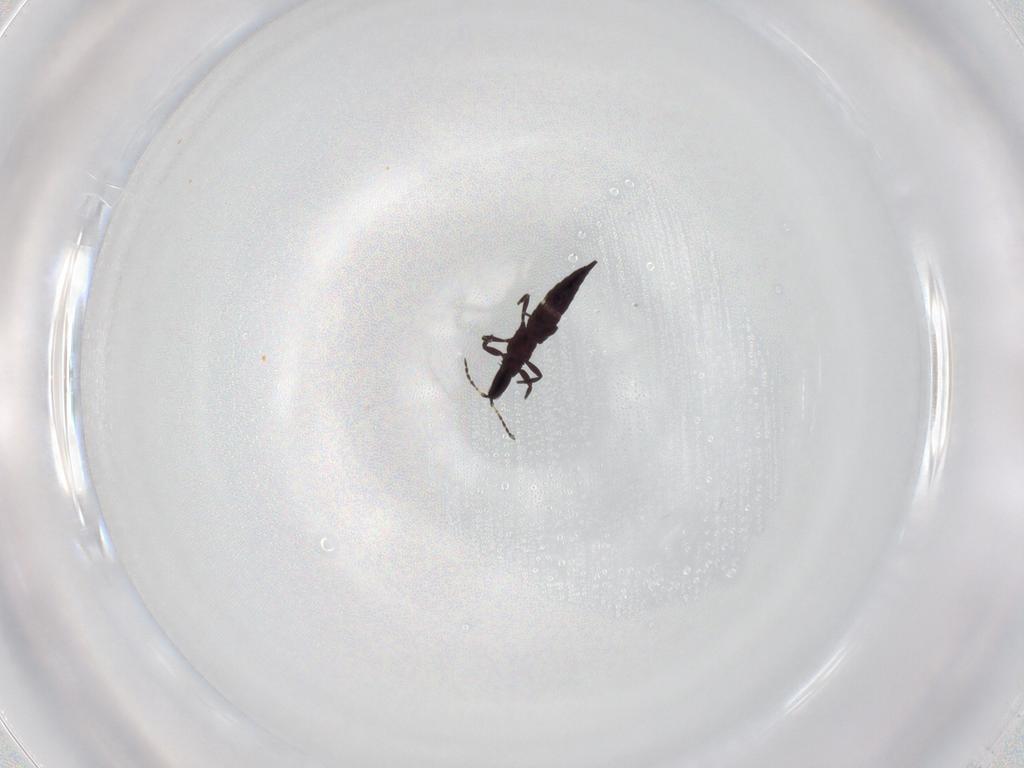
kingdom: Animalia
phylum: Arthropoda
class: Insecta
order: Thysanoptera
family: Phlaeothripidae
